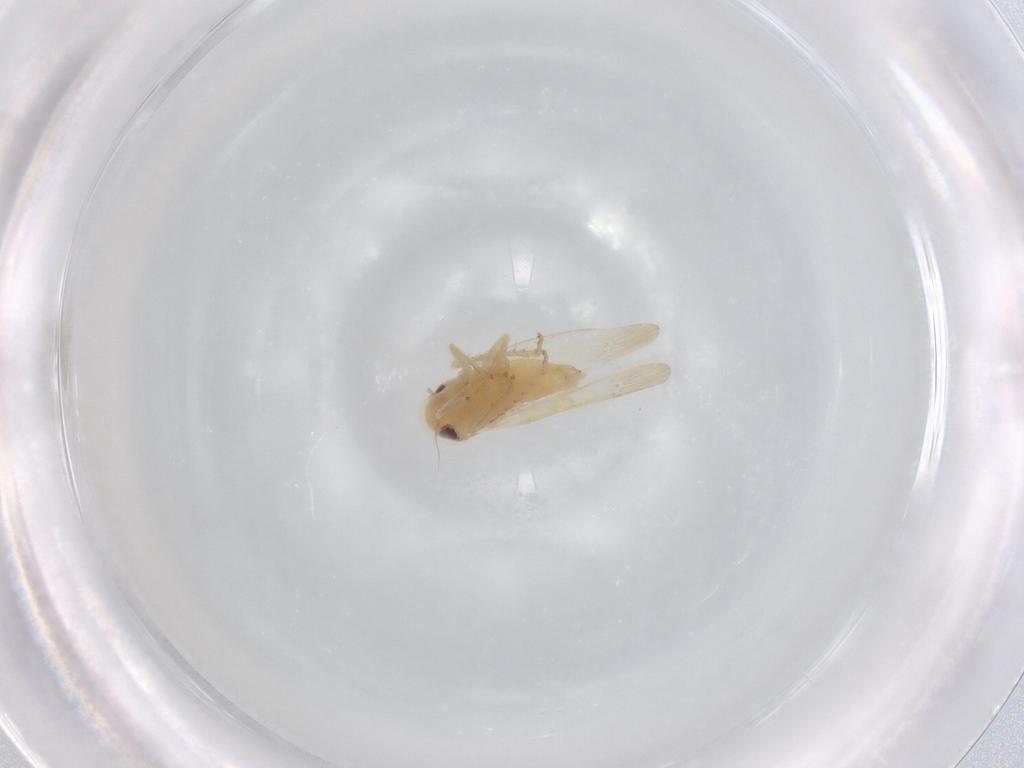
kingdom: Animalia
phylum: Arthropoda
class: Insecta
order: Hemiptera
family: Cicadellidae
